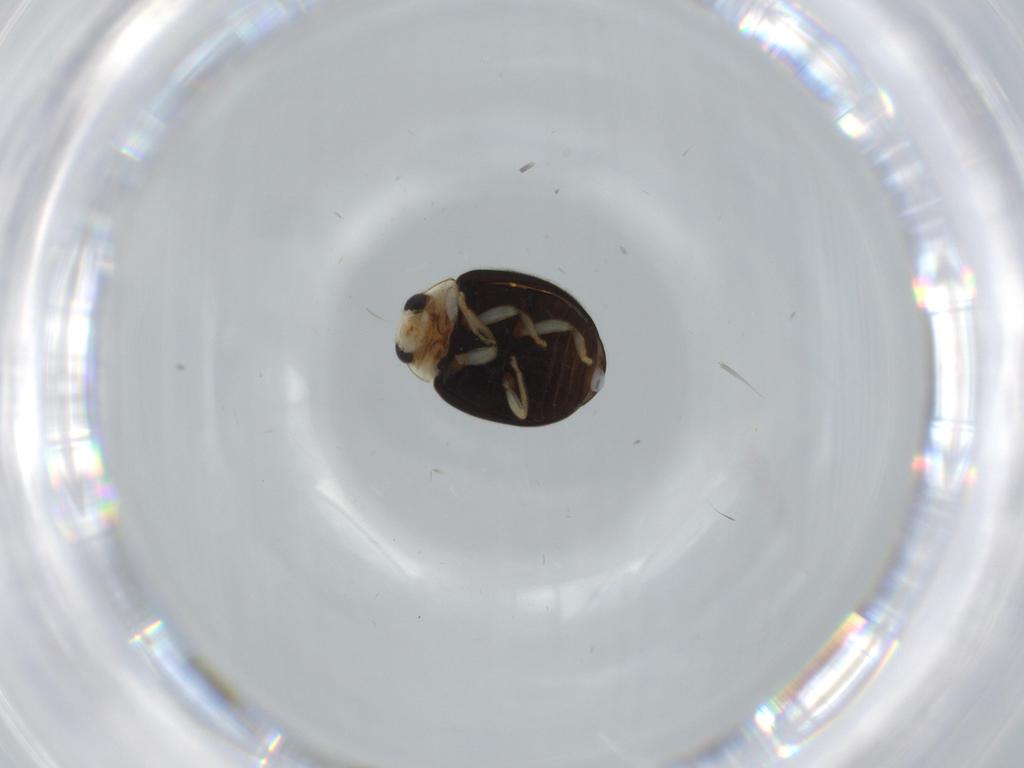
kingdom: Animalia
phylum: Arthropoda
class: Insecta
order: Coleoptera
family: Coccinellidae
